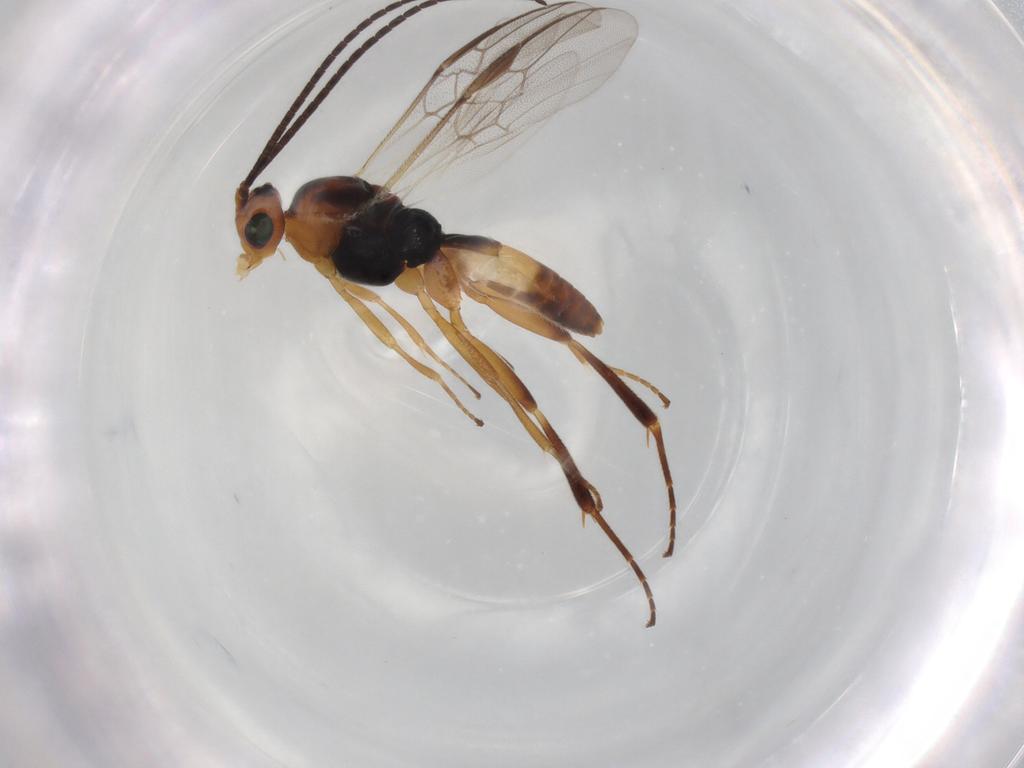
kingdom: Animalia
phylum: Arthropoda
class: Insecta
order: Hymenoptera
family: Braconidae
